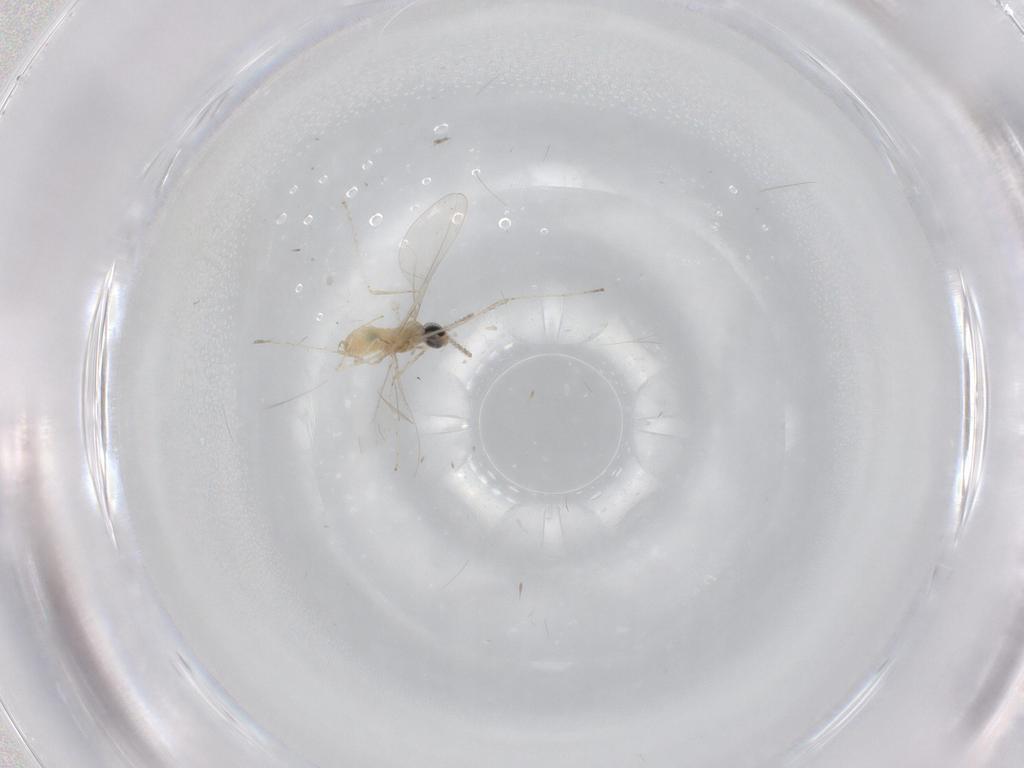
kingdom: Animalia
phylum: Arthropoda
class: Insecta
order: Diptera
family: Cecidomyiidae
